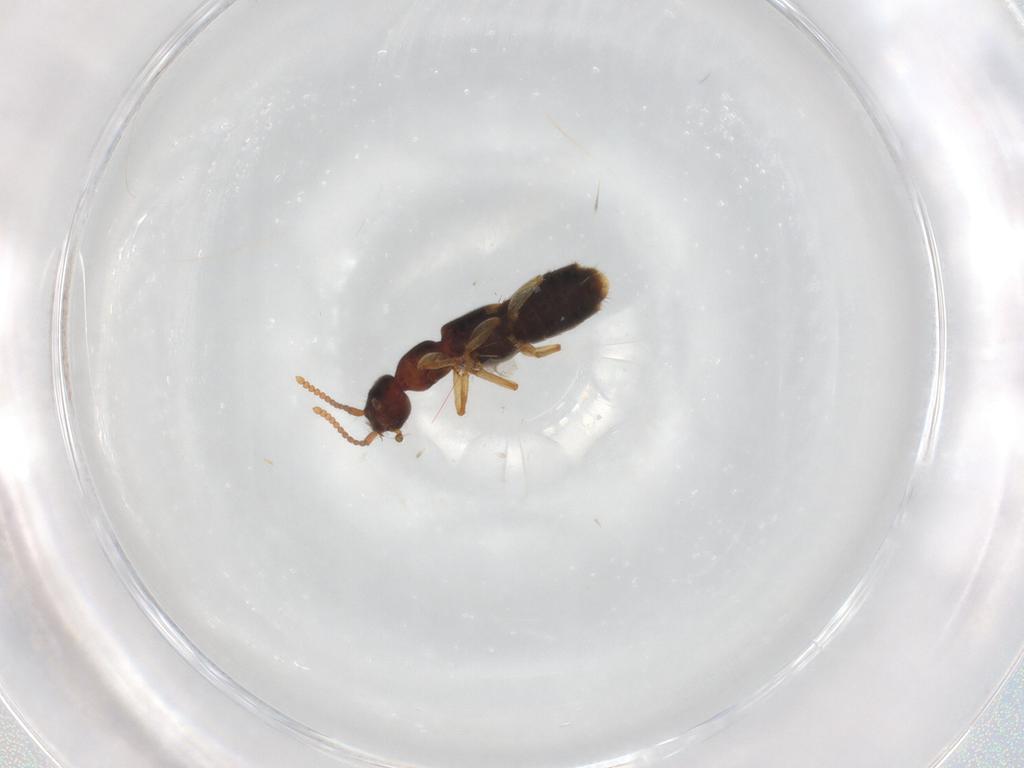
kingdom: Animalia
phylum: Arthropoda
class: Insecta
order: Coleoptera
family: Staphylinidae
